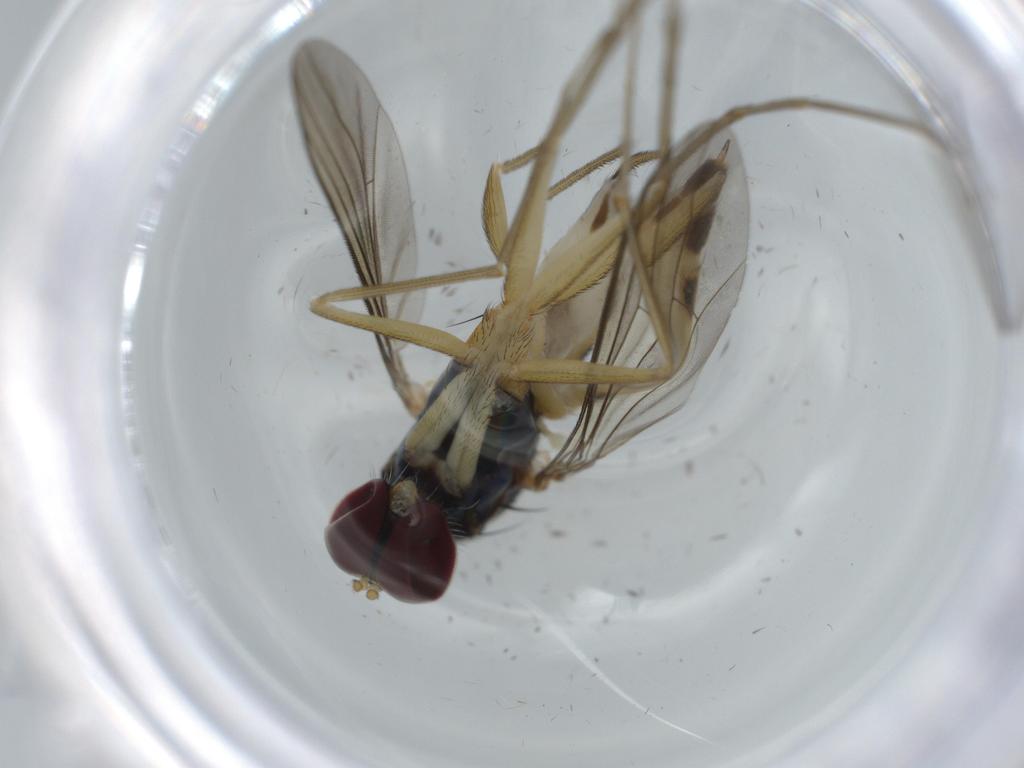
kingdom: Animalia
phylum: Arthropoda
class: Insecta
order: Diptera
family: Dolichopodidae
